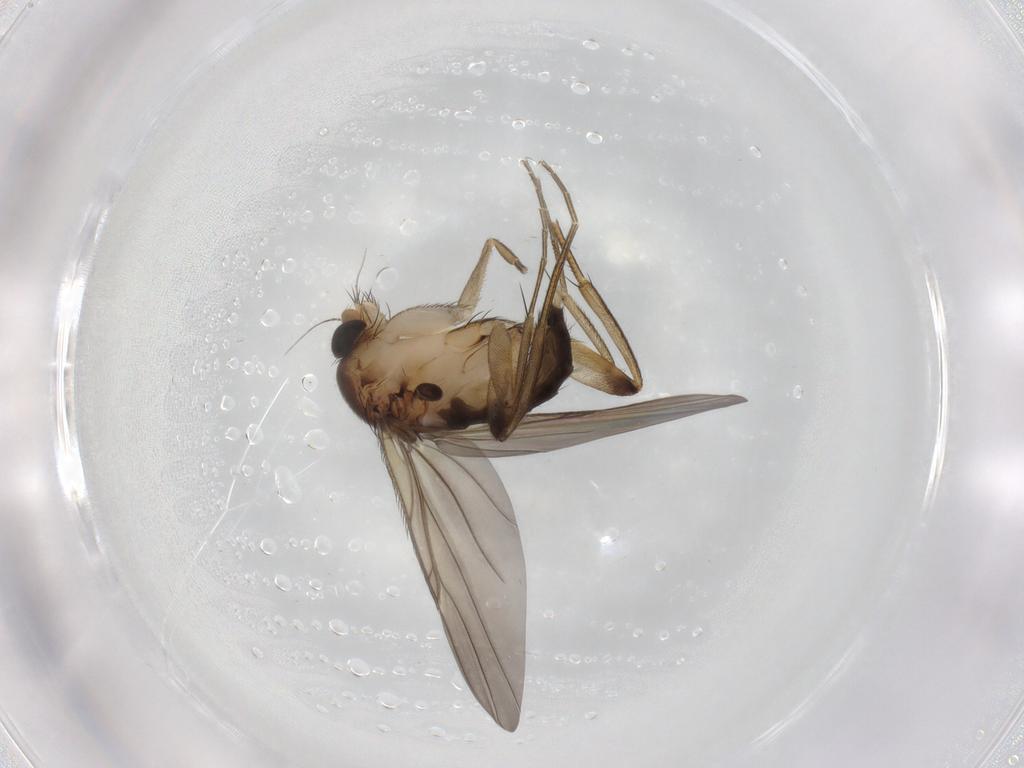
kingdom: Animalia
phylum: Arthropoda
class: Insecta
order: Diptera
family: Phoridae
